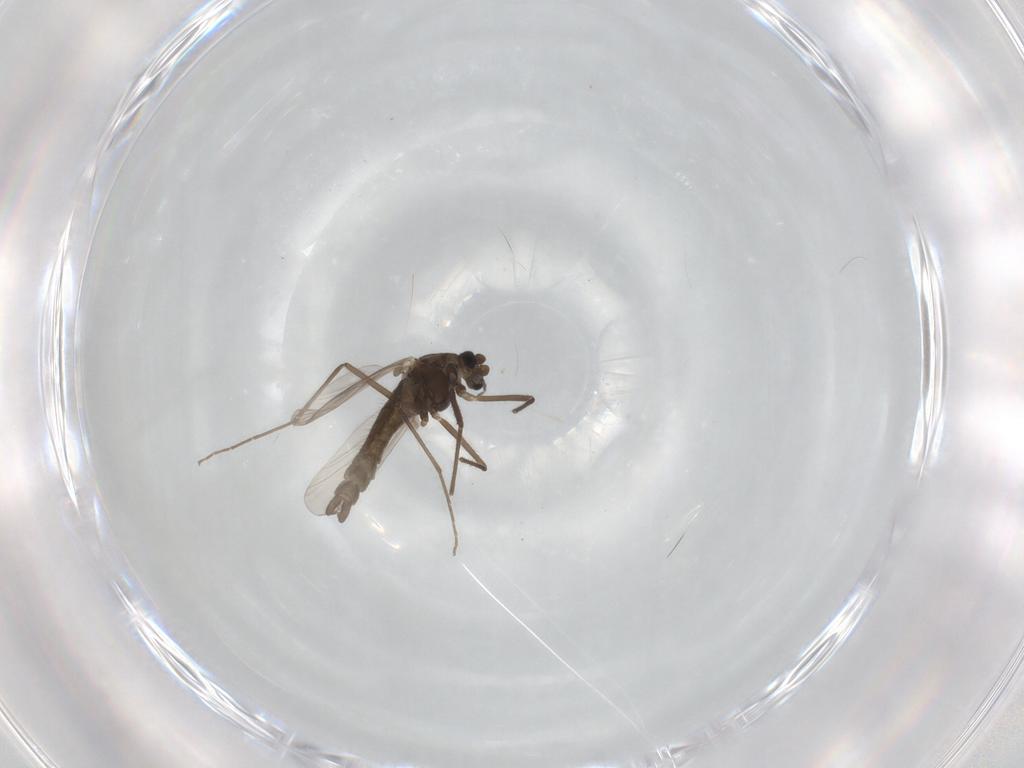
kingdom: Animalia
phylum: Arthropoda
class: Insecta
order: Diptera
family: Chironomidae
